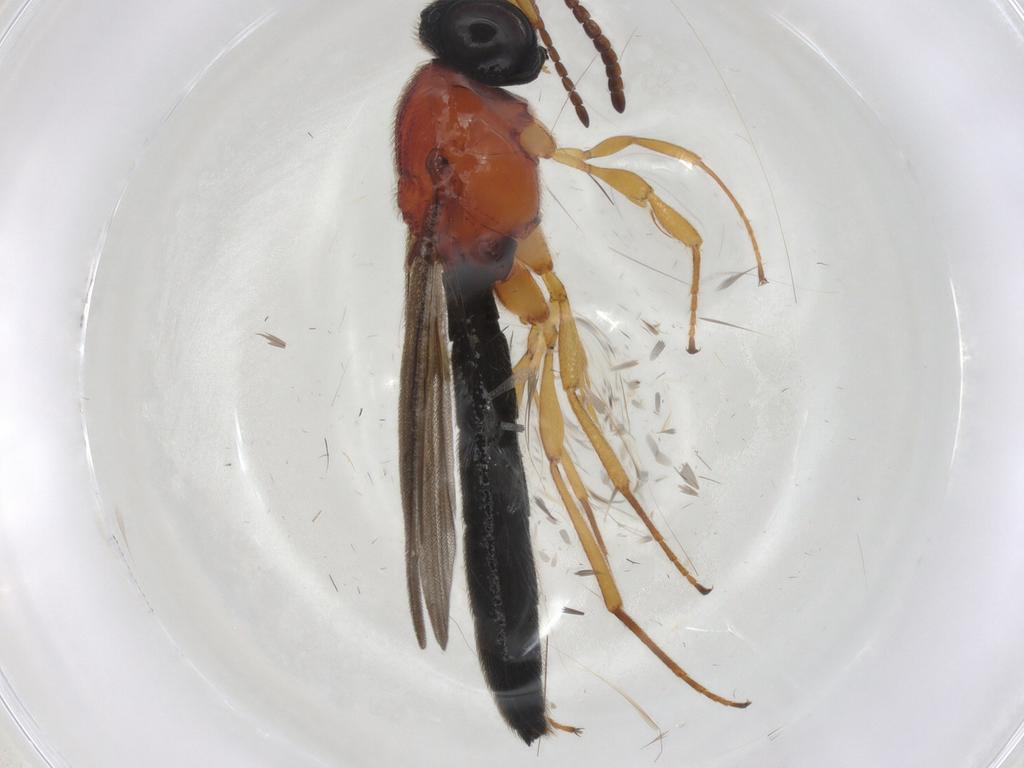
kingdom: Animalia
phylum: Arthropoda
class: Insecta
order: Hymenoptera
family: Scelionidae
